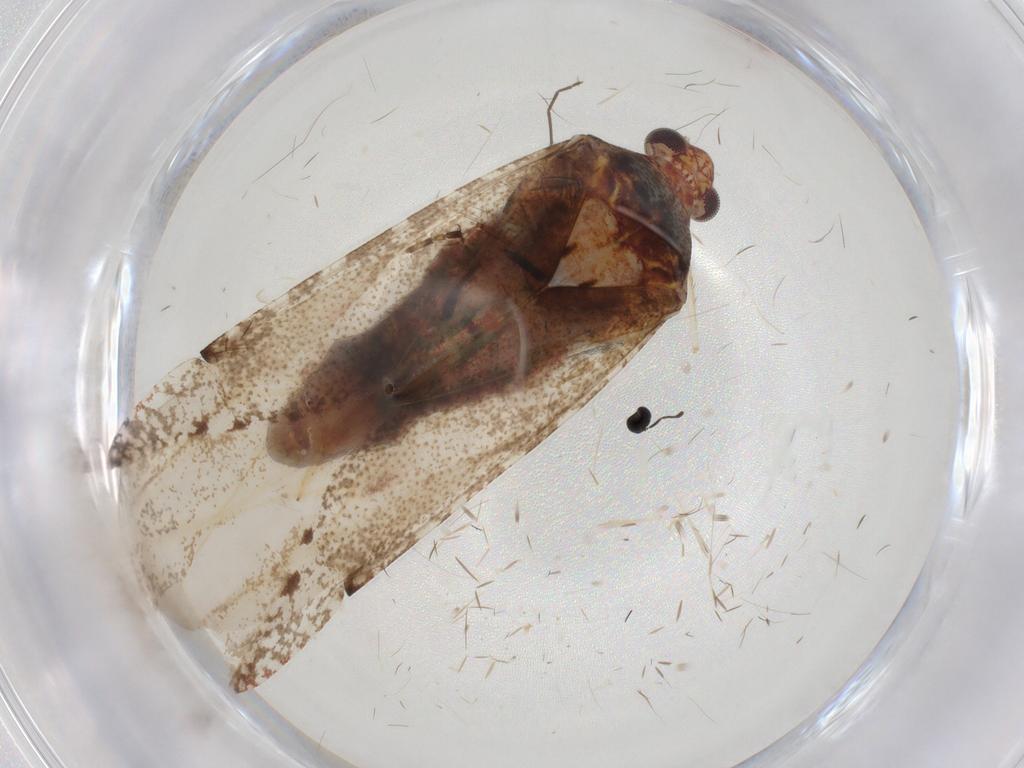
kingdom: Animalia
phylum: Arthropoda
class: Insecta
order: Hemiptera
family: Miridae
